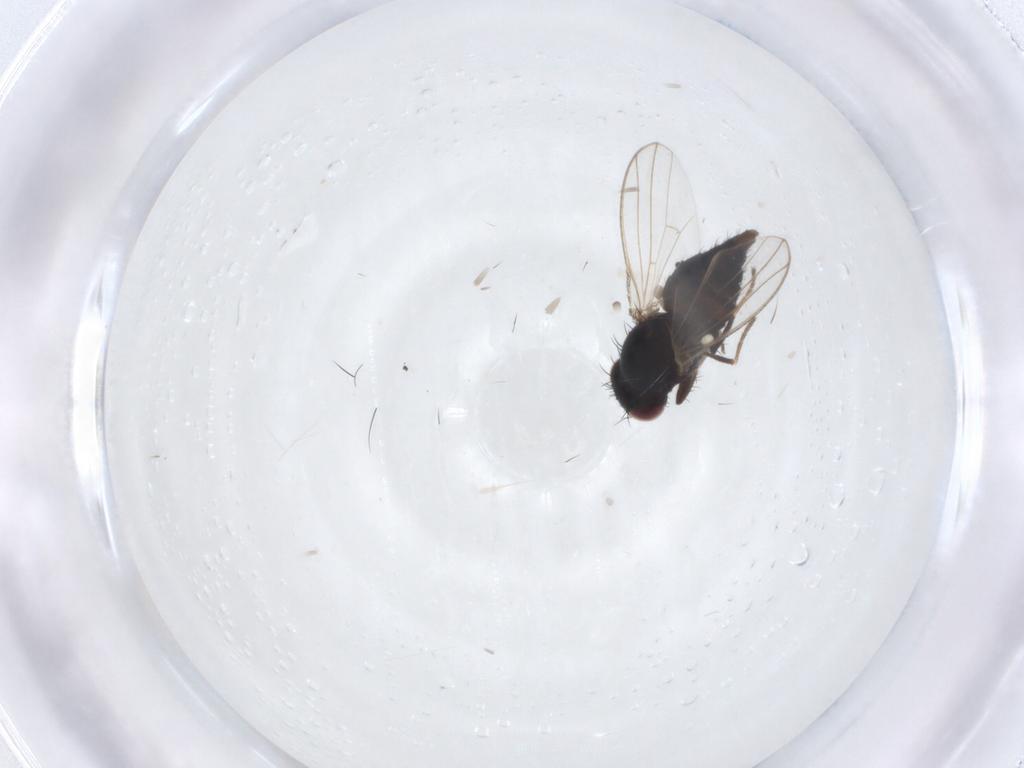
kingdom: Animalia
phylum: Arthropoda
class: Insecta
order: Diptera
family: Carnidae
